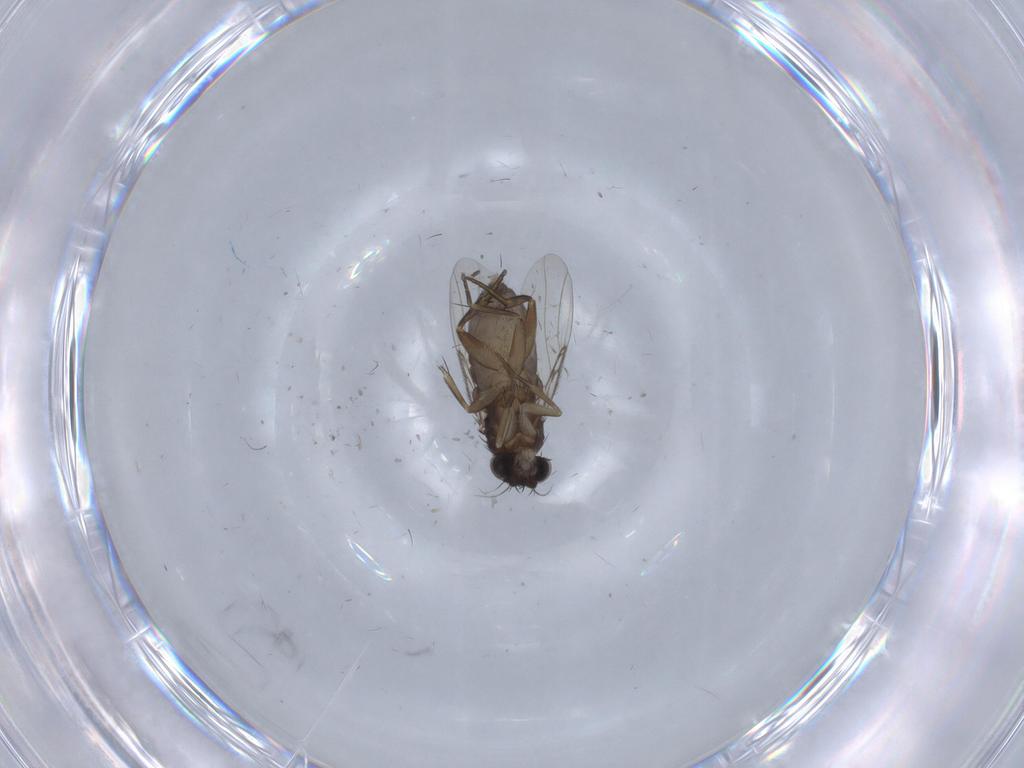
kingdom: Animalia
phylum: Arthropoda
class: Insecta
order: Diptera
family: Phoridae
